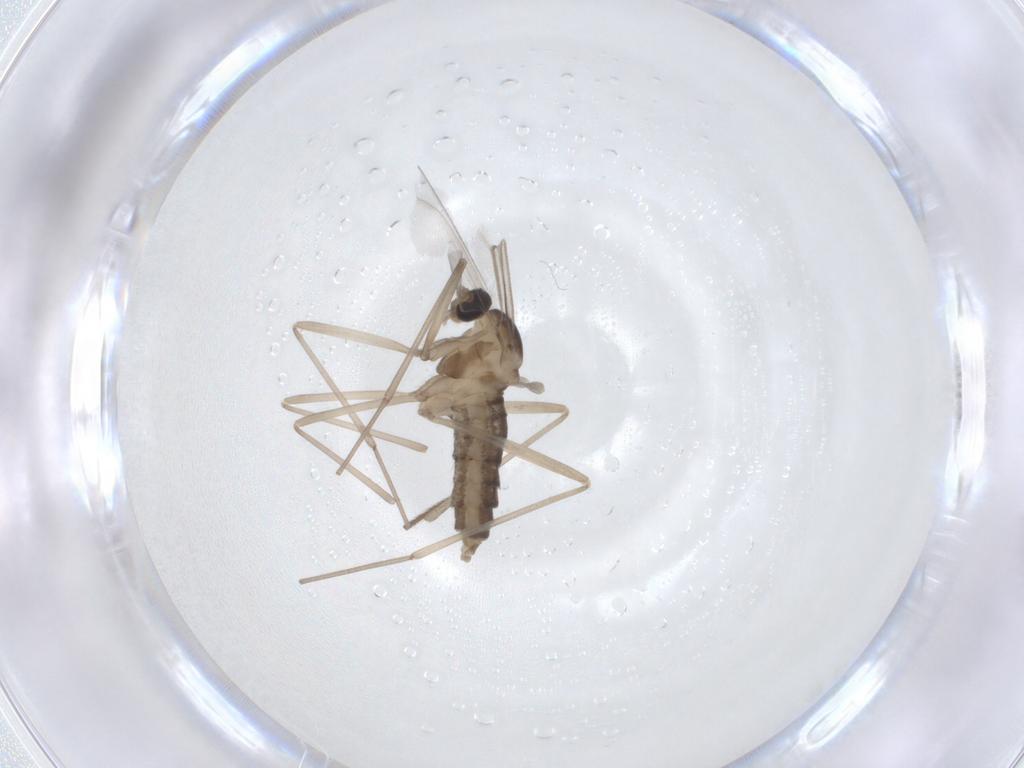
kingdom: Animalia
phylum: Arthropoda
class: Insecta
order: Diptera
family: Cecidomyiidae
